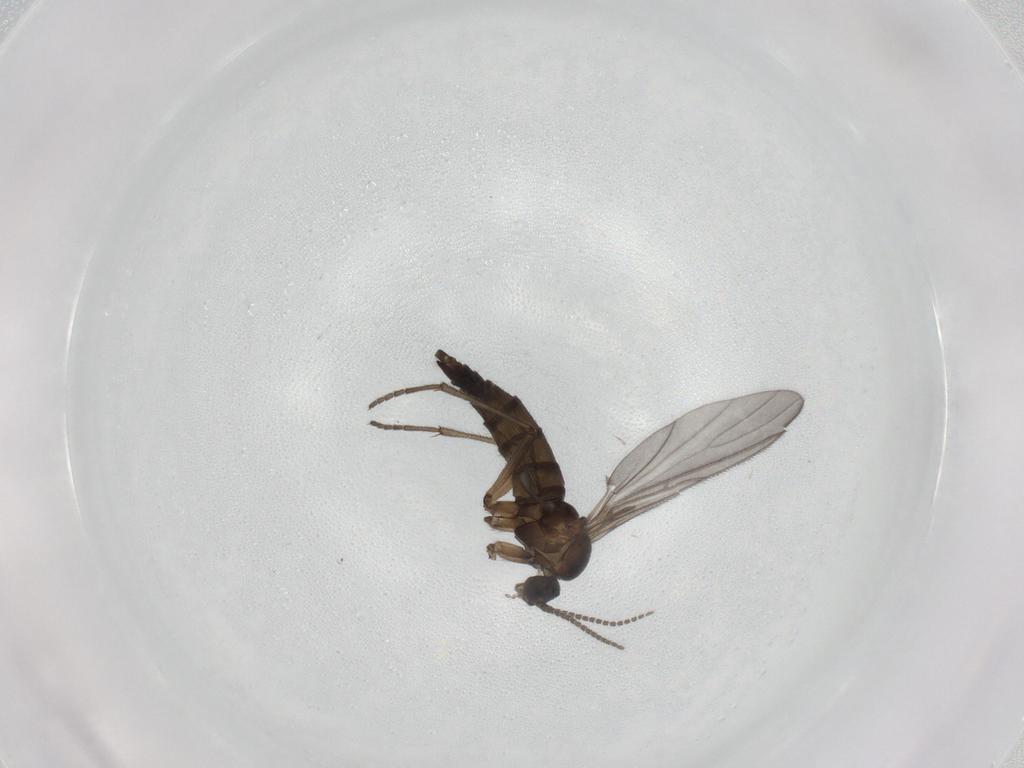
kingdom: Animalia
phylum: Arthropoda
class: Insecta
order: Diptera
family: Sciaridae
